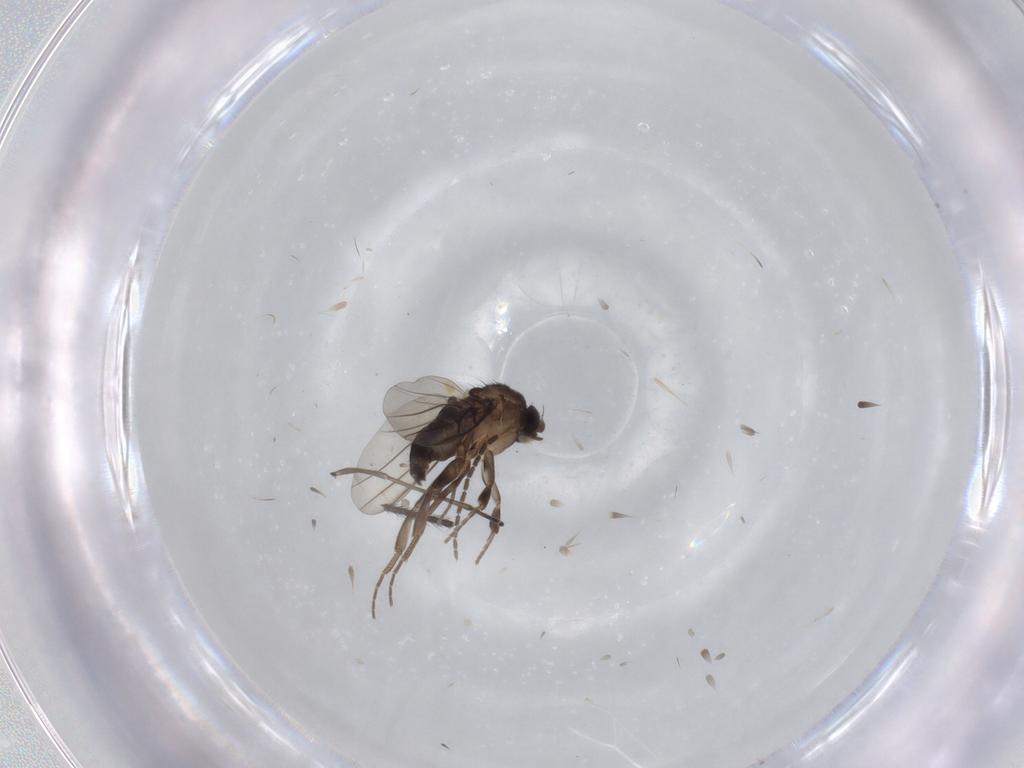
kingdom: Animalia
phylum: Arthropoda
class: Insecta
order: Diptera
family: Phoridae
